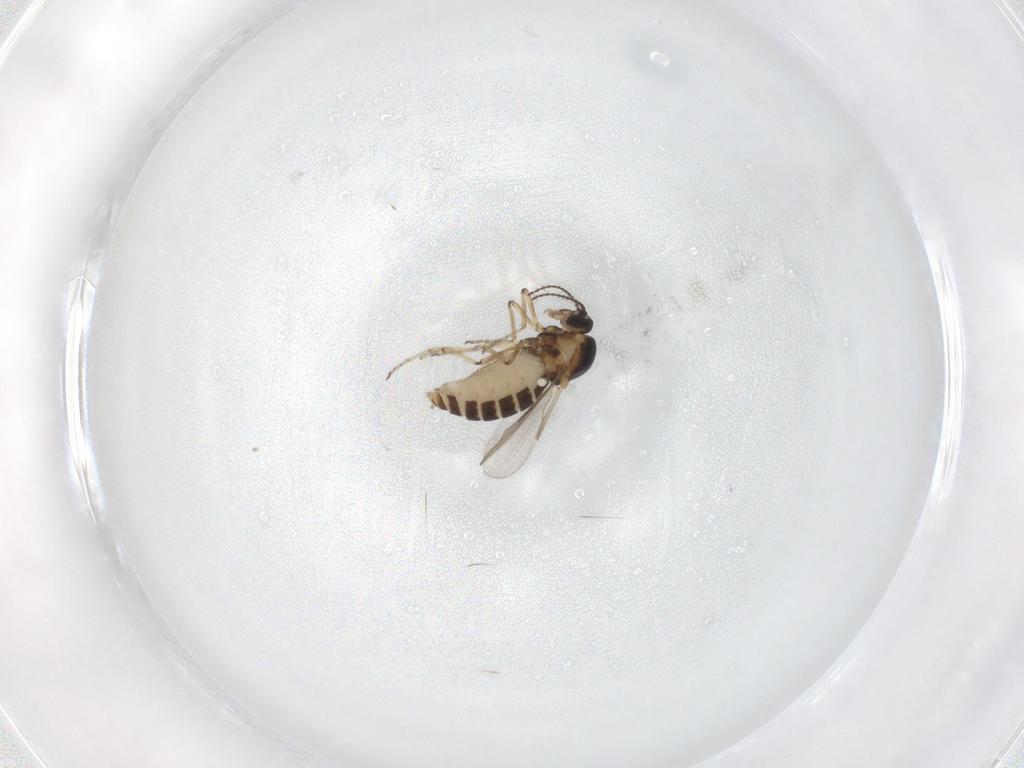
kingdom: Animalia
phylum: Arthropoda
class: Insecta
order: Diptera
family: Ceratopogonidae
